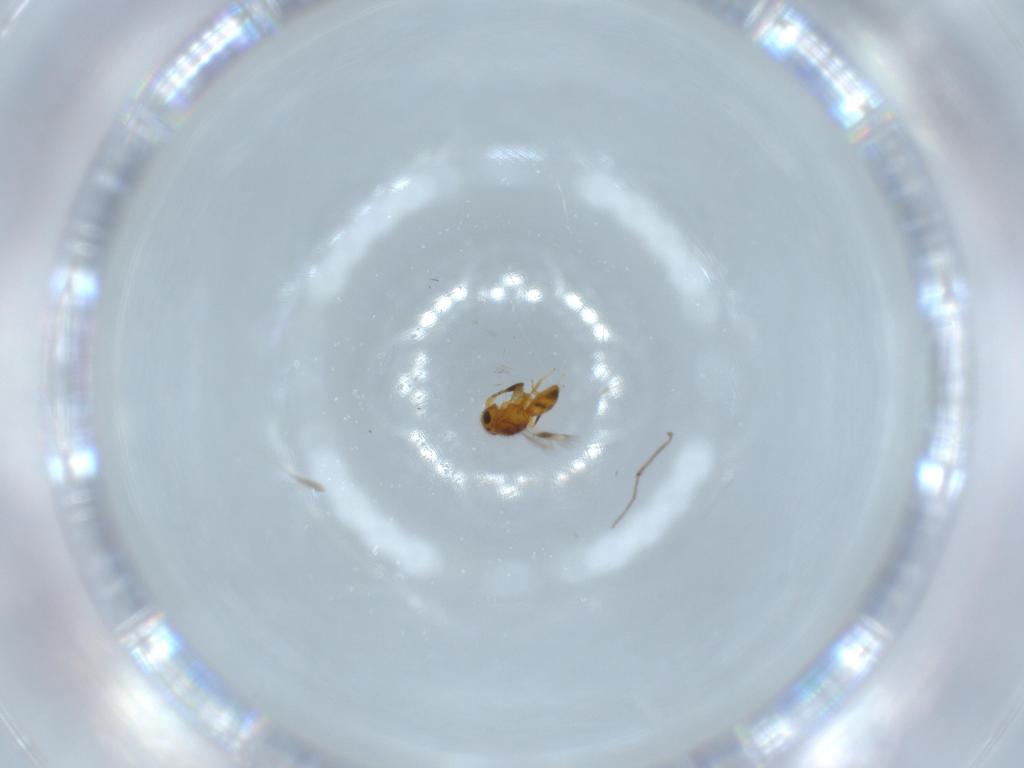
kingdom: Animalia
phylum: Arthropoda
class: Insecta
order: Hymenoptera
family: Scelionidae
